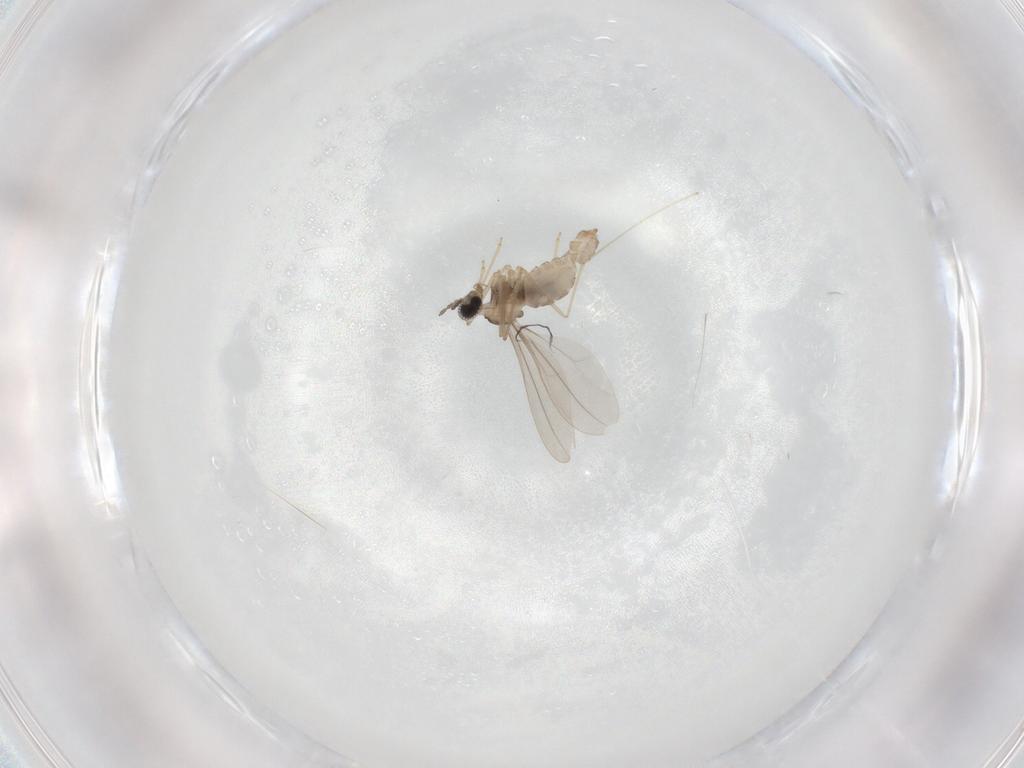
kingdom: Animalia
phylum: Arthropoda
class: Insecta
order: Diptera
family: Cecidomyiidae
